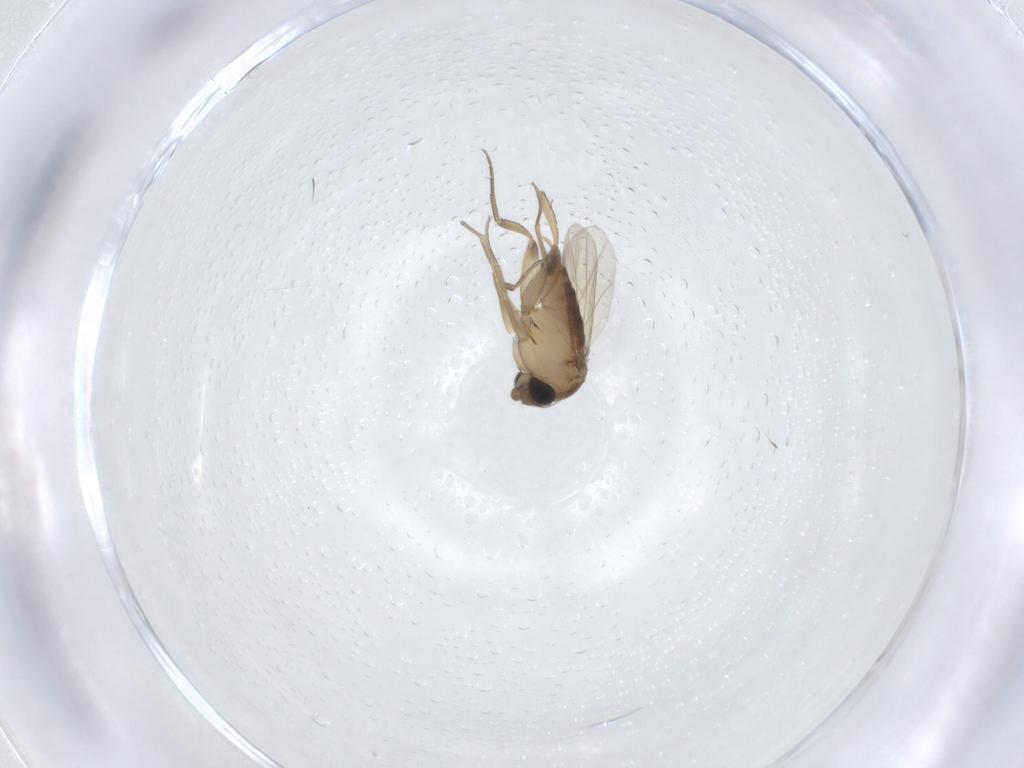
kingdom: Animalia
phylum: Arthropoda
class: Insecta
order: Diptera
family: Phoridae
